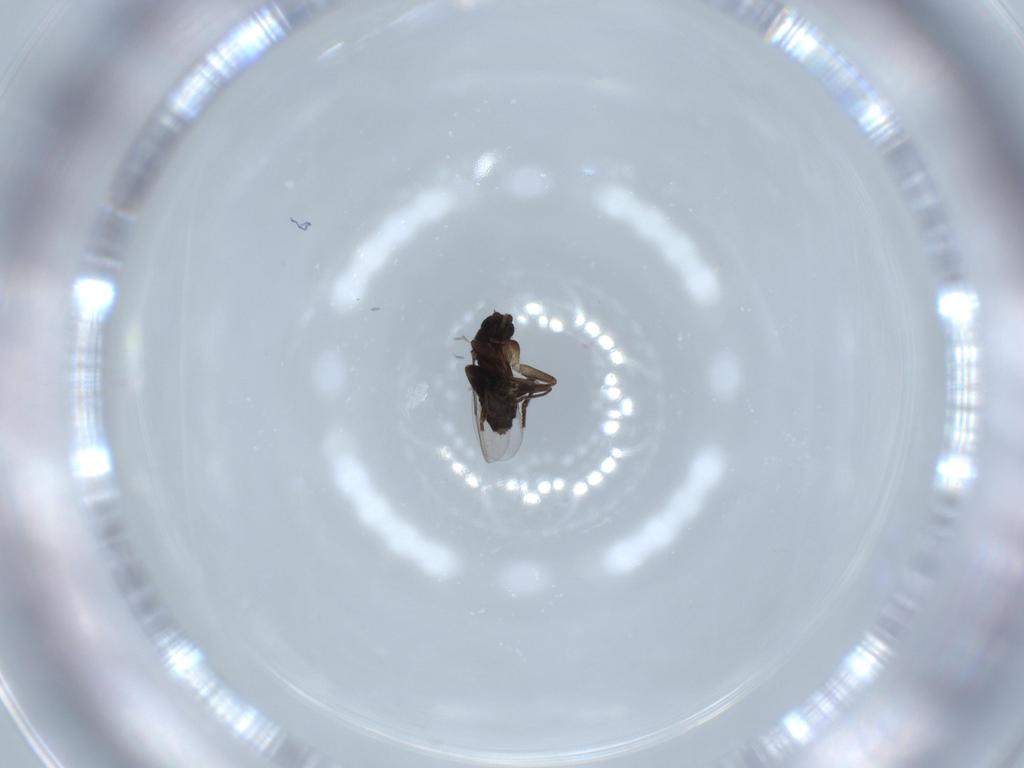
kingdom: Animalia
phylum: Arthropoda
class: Insecta
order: Diptera
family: Phoridae
